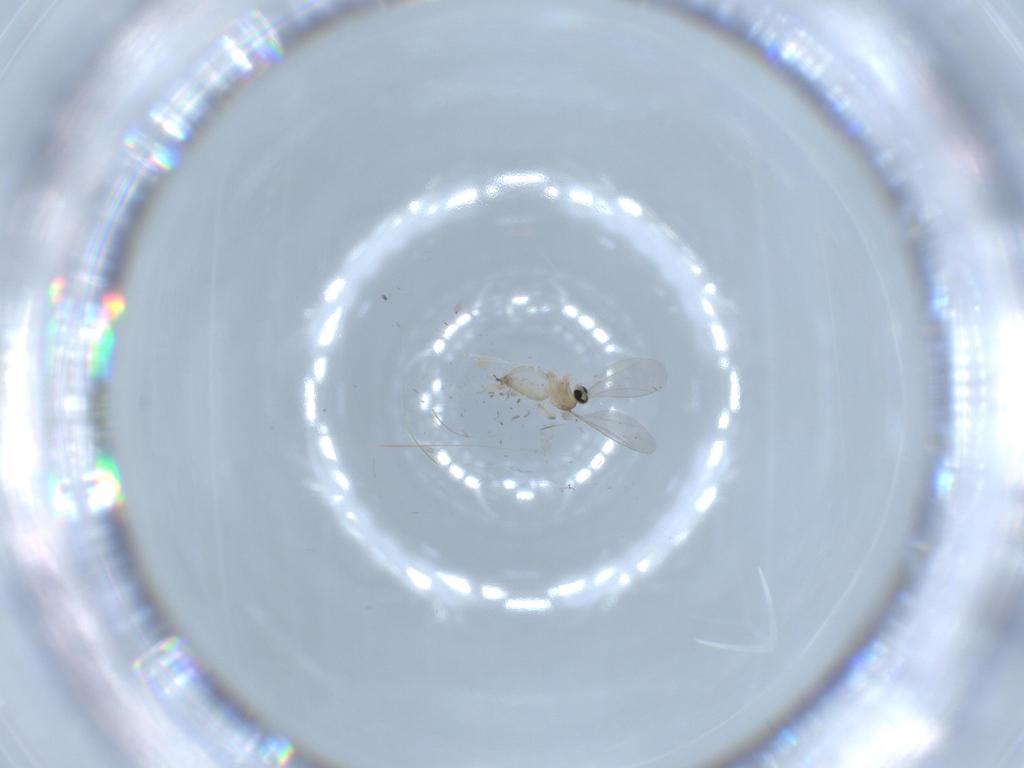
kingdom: Animalia
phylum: Arthropoda
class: Insecta
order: Diptera
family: Cecidomyiidae
